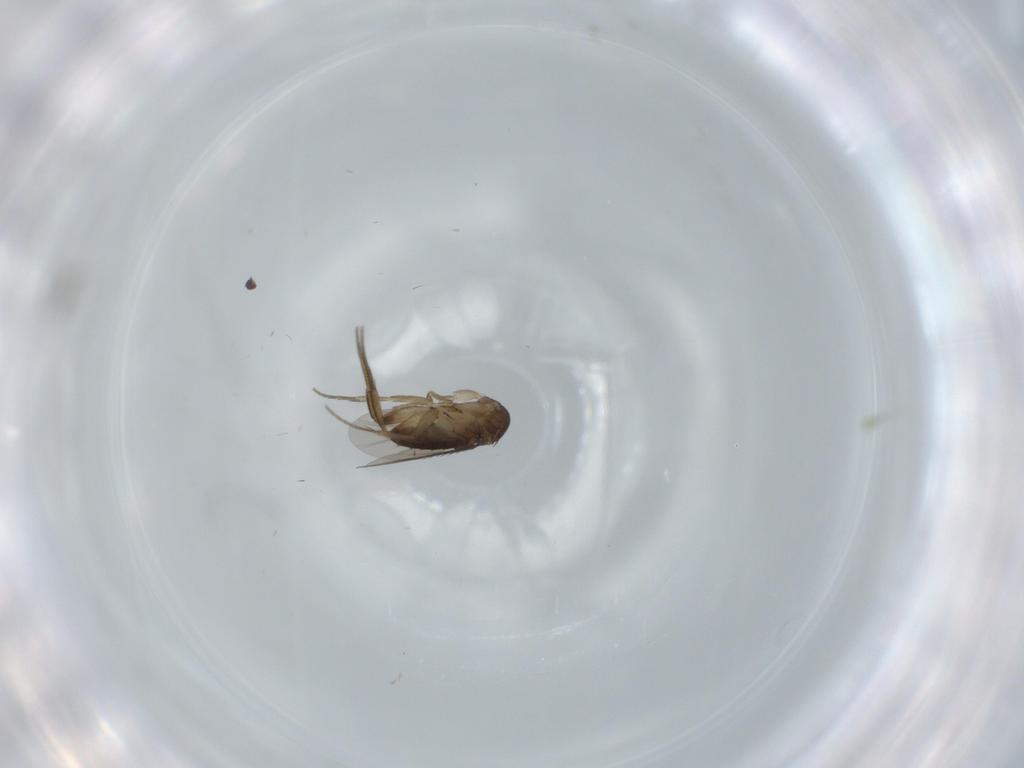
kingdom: Animalia
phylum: Arthropoda
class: Insecta
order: Diptera
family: Phoridae
